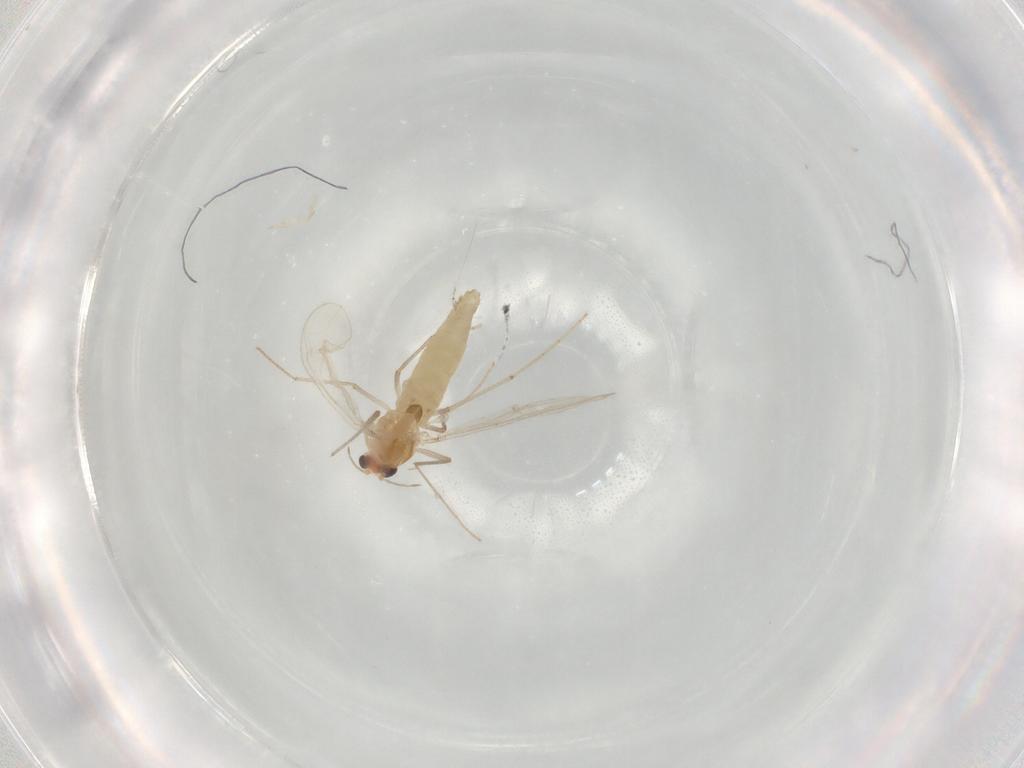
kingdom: Animalia
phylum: Arthropoda
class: Insecta
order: Diptera
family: Chironomidae
